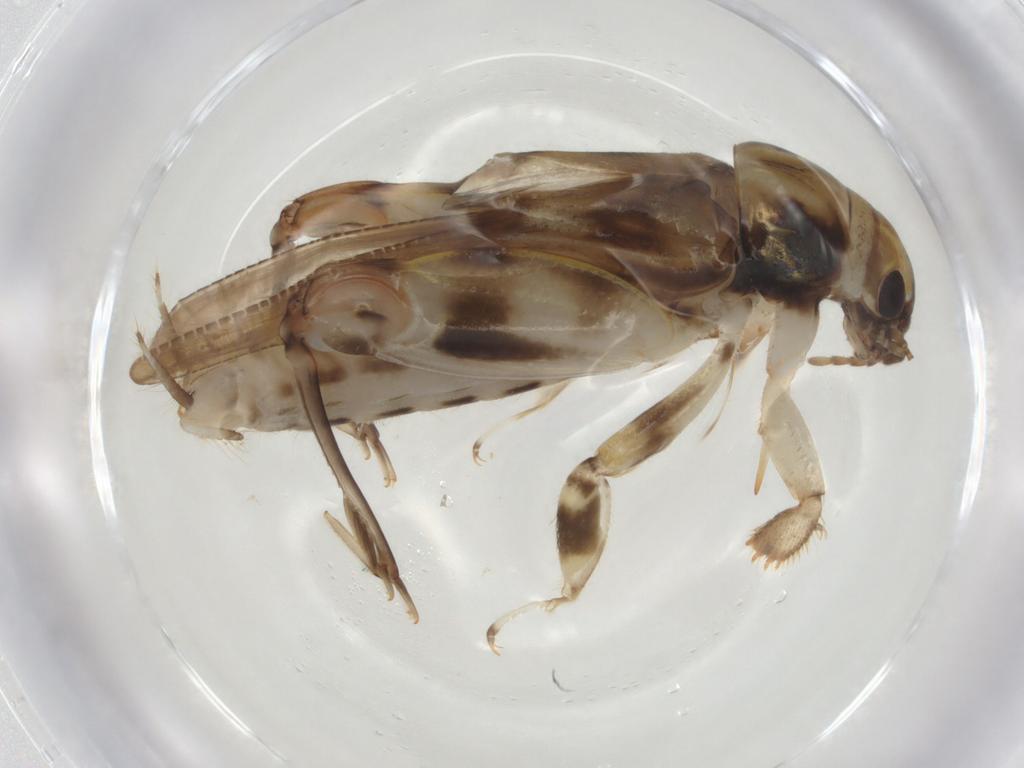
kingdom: Animalia
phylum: Arthropoda
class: Insecta
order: Orthoptera
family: Tridactylidae
